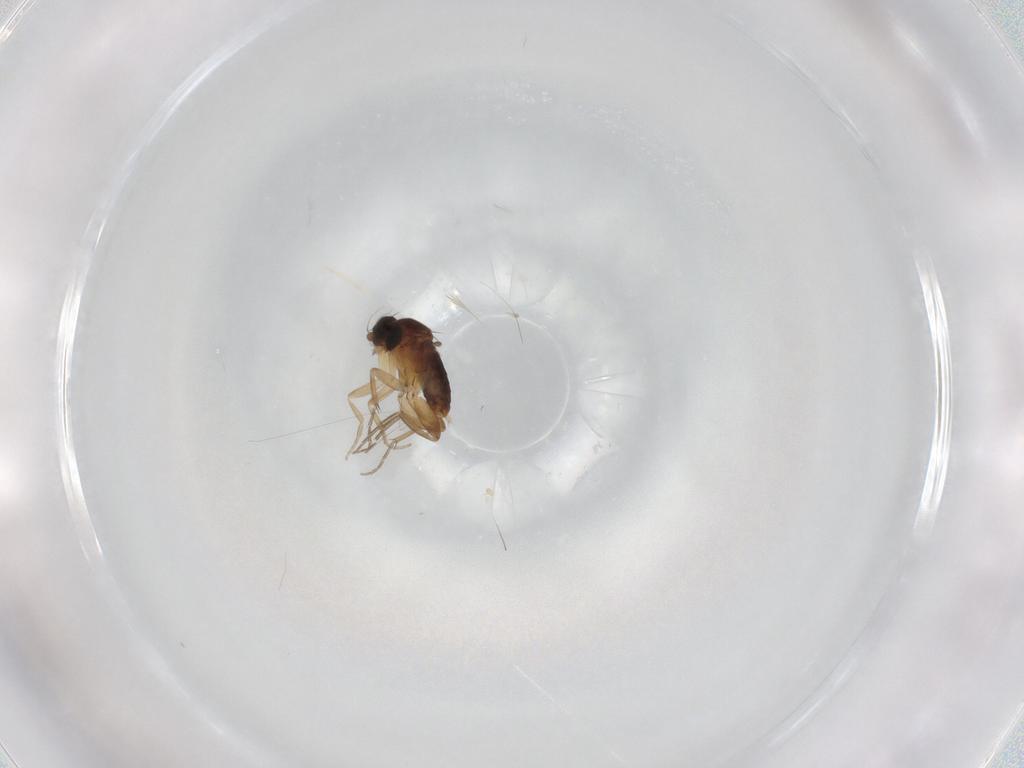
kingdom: Animalia
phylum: Arthropoda
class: Insecta
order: Diptera
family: Phoridae
